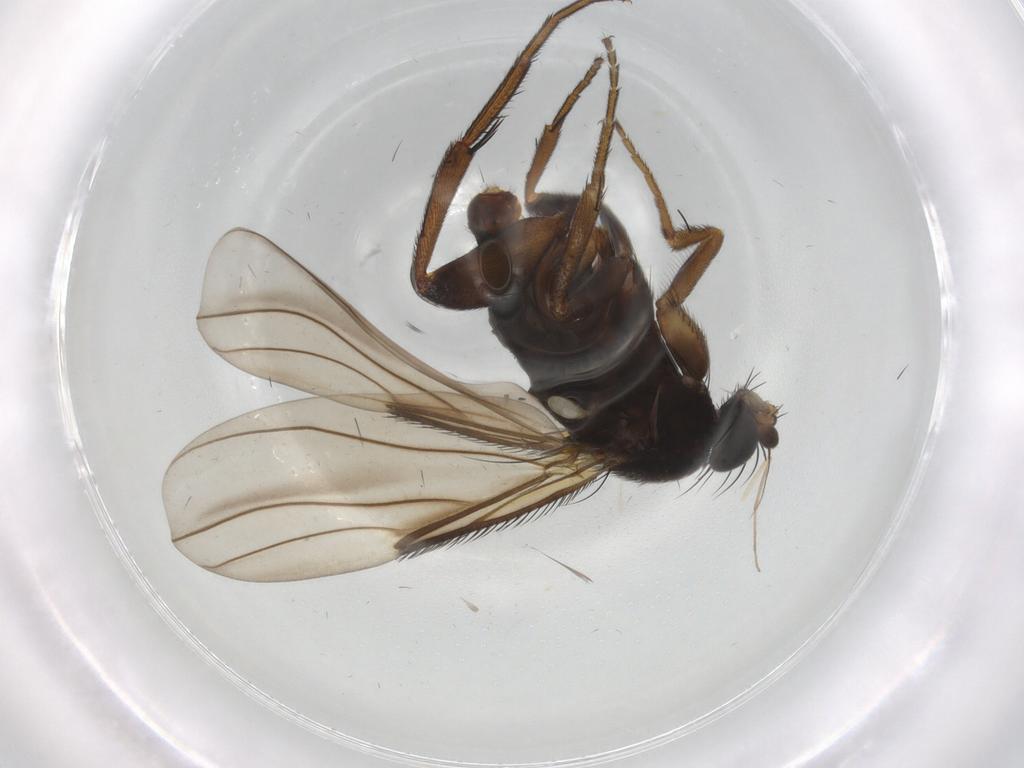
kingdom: Animalia
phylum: Arthropoda
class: Insecta
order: Diptera
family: Phoridae
